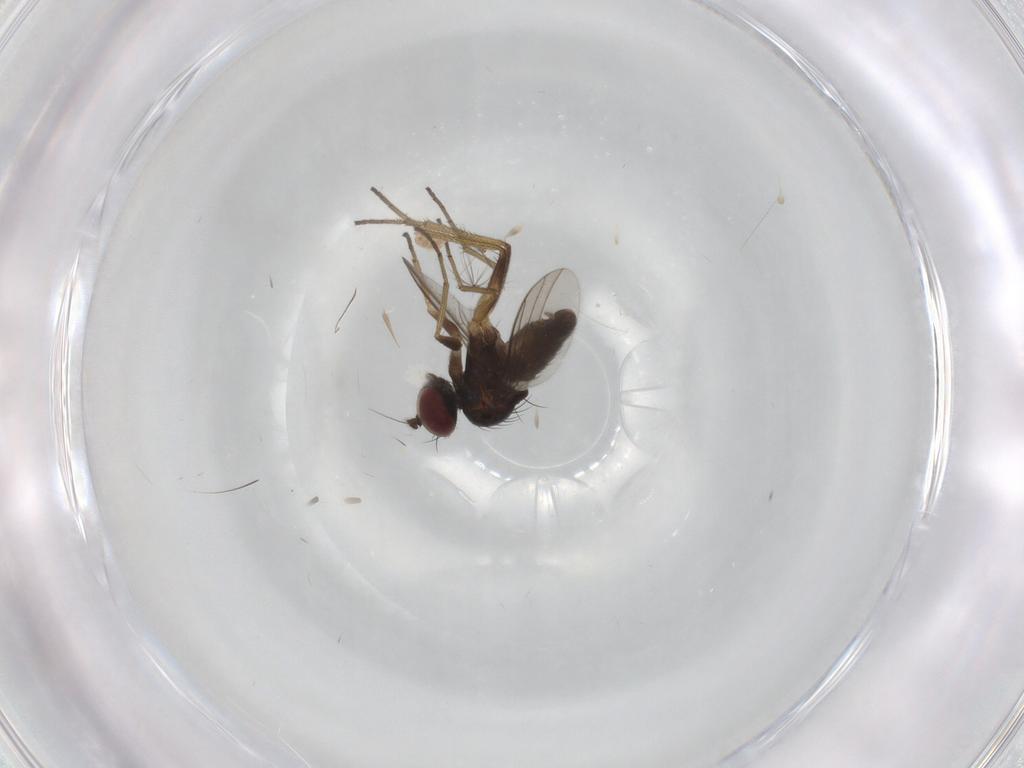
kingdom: Animalia
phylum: Arthropoda
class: Insecta
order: Diptera
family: Dolichopodidae
